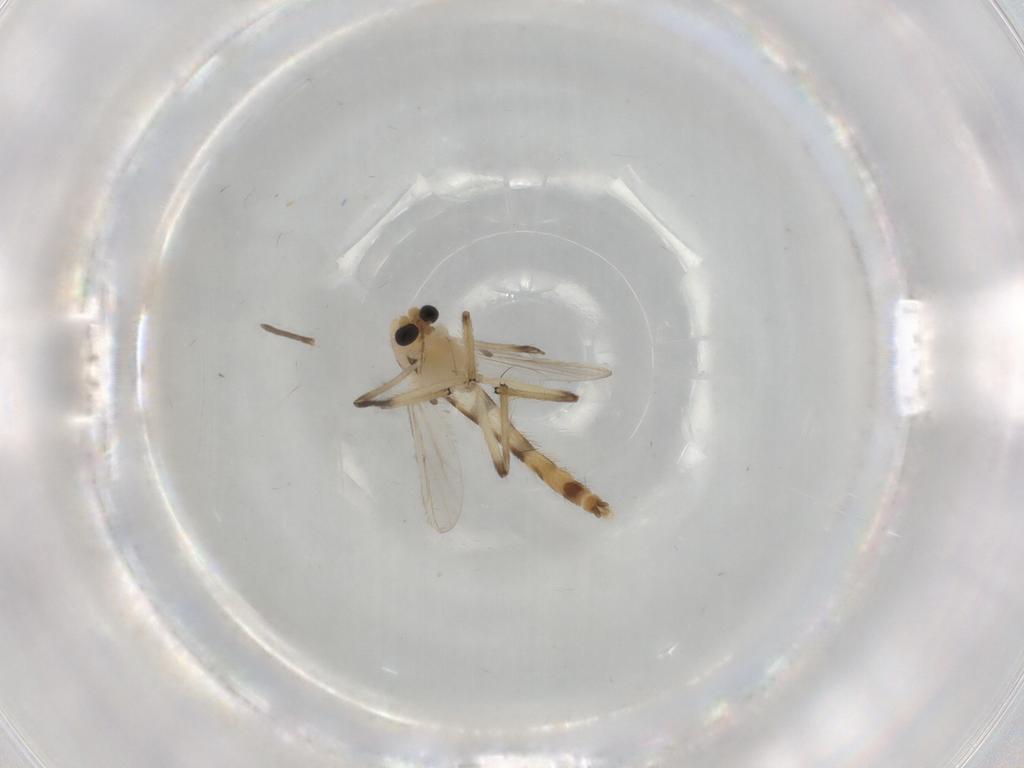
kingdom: Animalia
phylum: Arthropoda
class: Insecta
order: Diptera
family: Chironomidae
